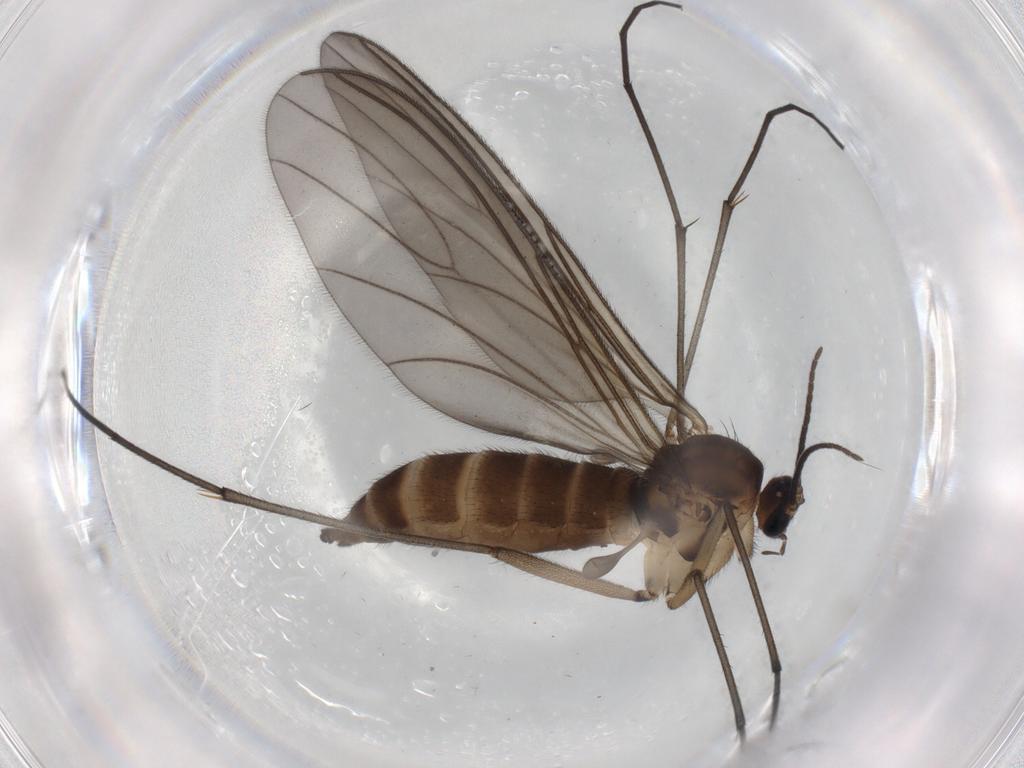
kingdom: Animalia
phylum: Arthropoda
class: Insecta
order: Diptera
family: Sciaridae
